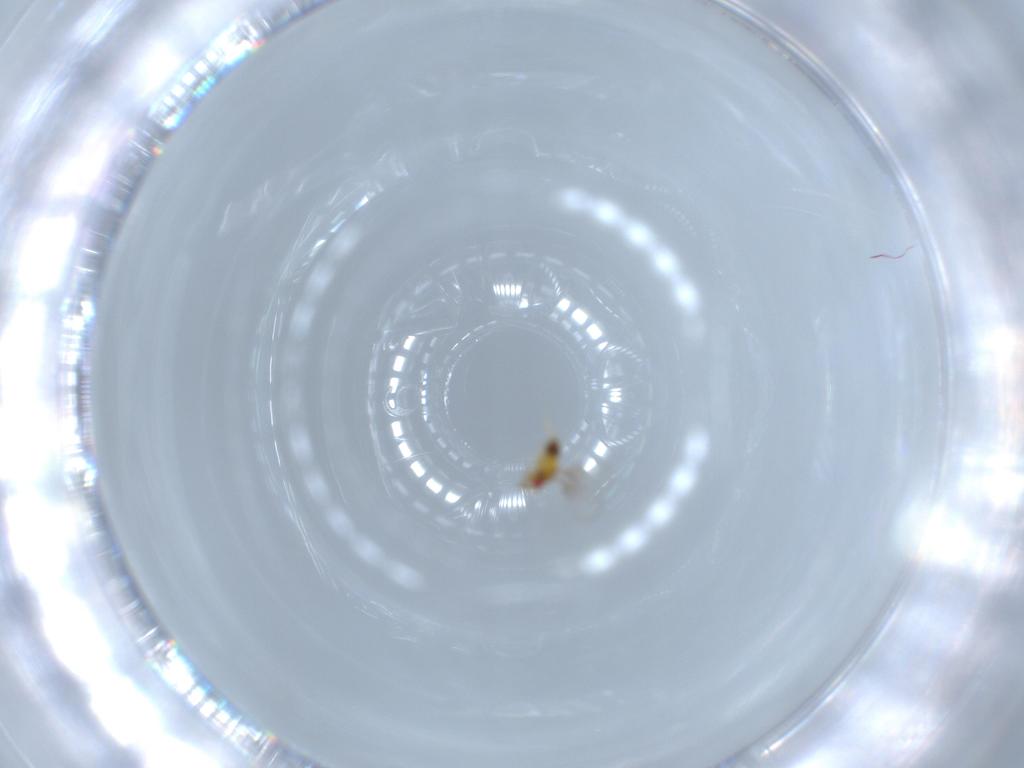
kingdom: Animalia
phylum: Arthropoda
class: Insecta
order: Hymenoptera
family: Trichogrammatidae
